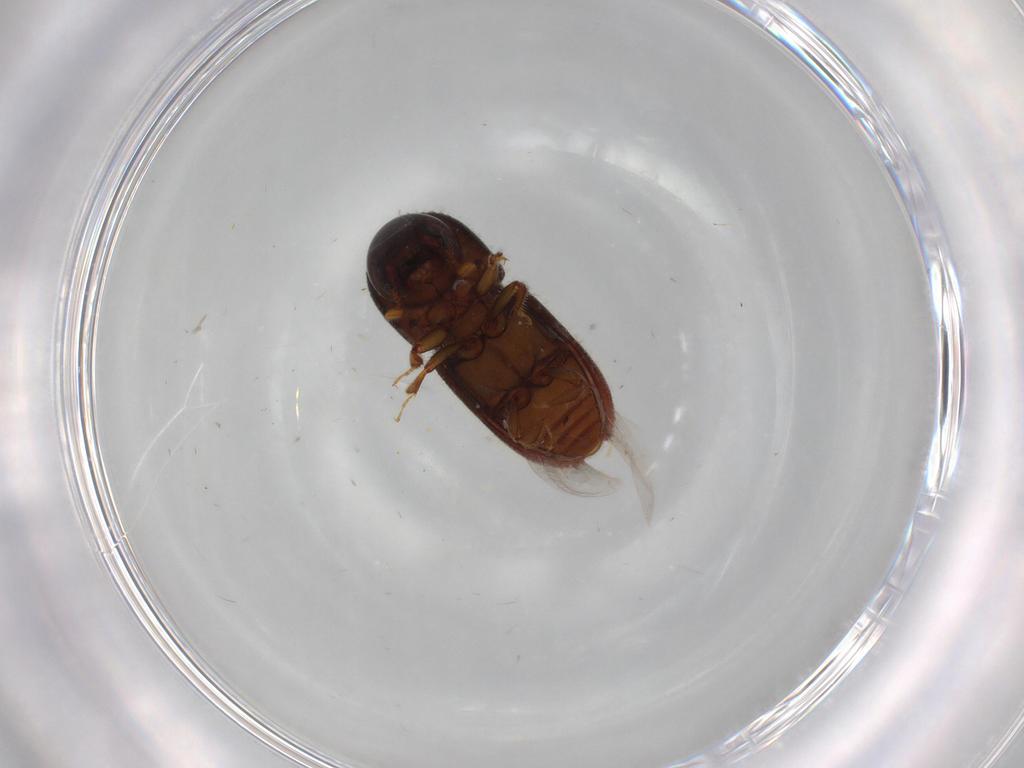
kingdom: Animalia
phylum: Arthropoda
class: Insecta
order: Coleoptera
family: Curculionidae
